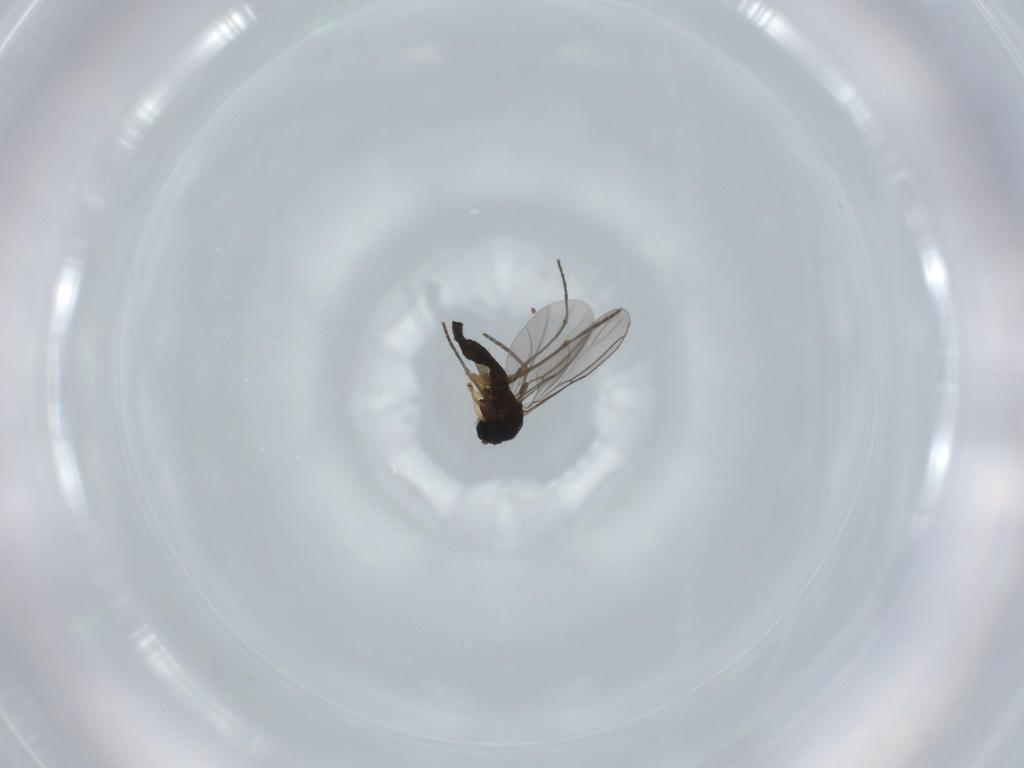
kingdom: Animalia
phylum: Arthropoda
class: Insecta
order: Diptera
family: Sciaridae
